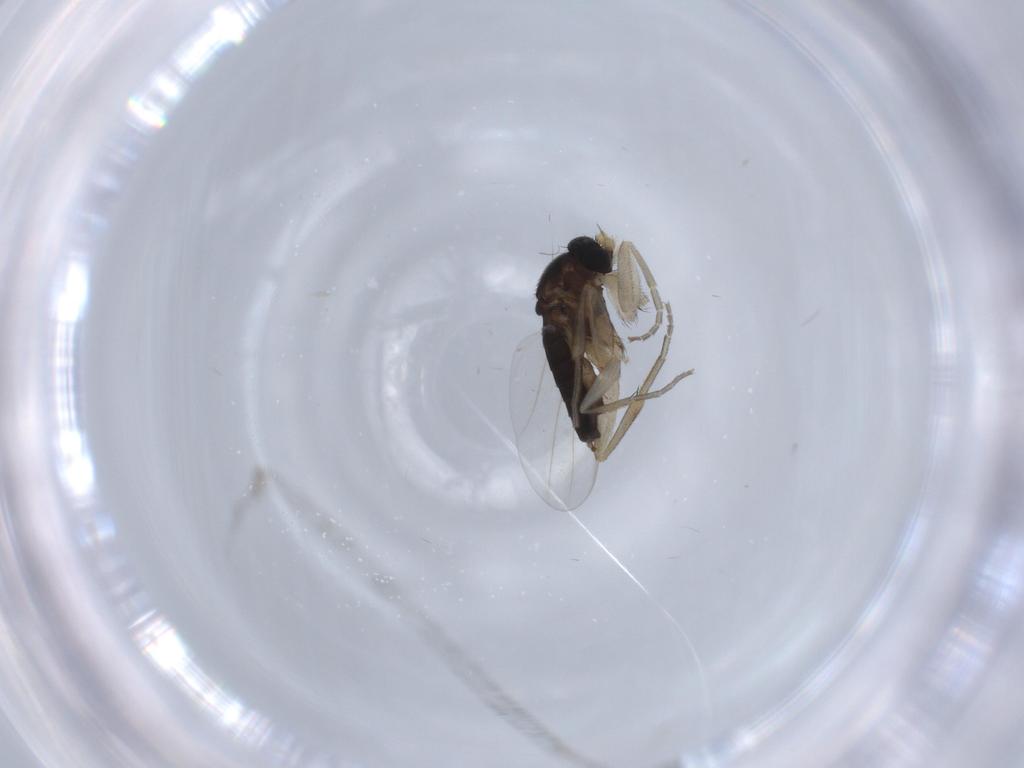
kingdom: Animalia
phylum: Arthropoda
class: Insecta
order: Diptera
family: Phoridae
